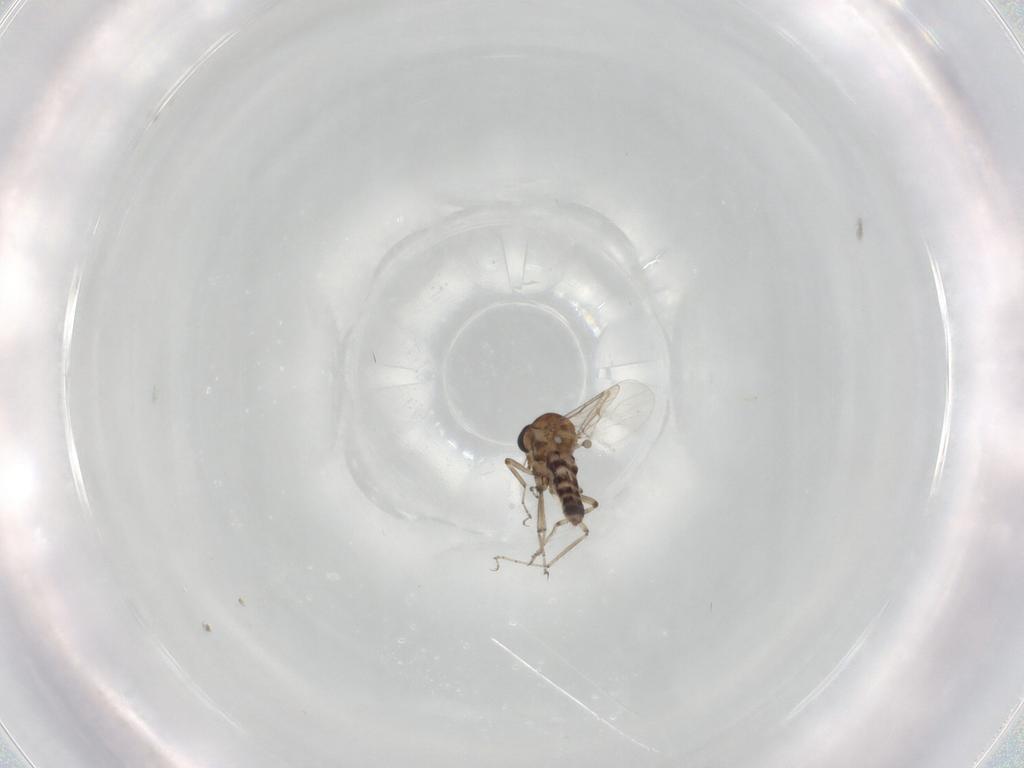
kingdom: Animalia
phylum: Arthropoda
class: Insecta
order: Diptera
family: Ceratopogonidae
